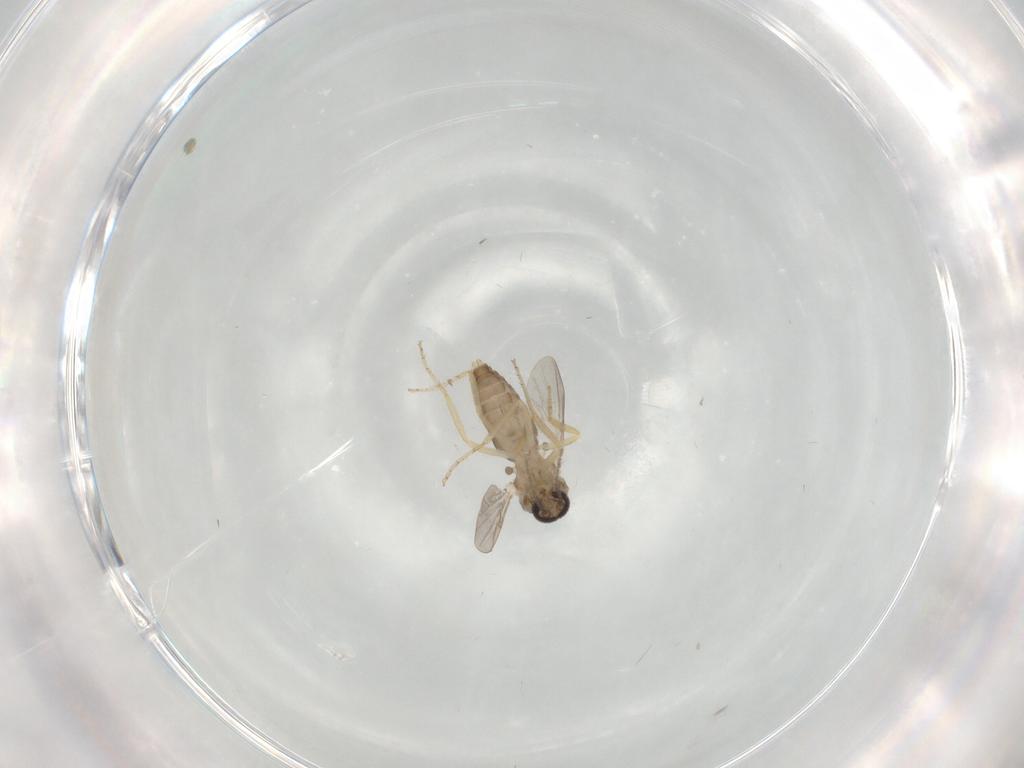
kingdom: Animalia
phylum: Arthropoda
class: Insecta
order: Diptera
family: Ceratopogonidae
